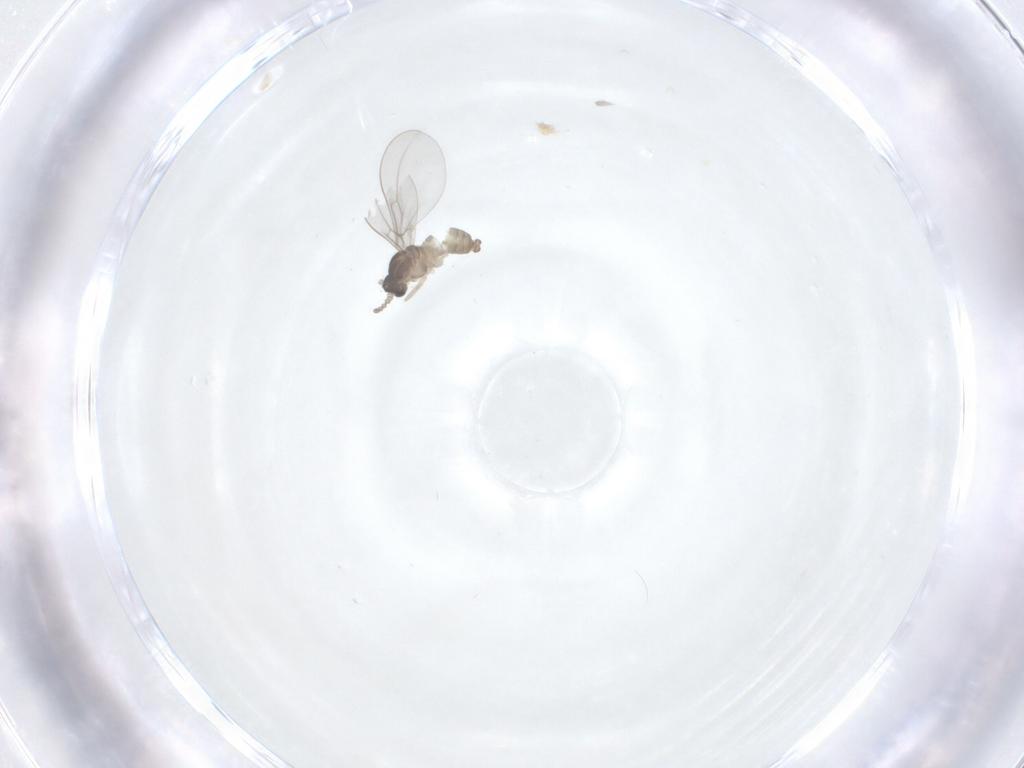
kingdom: Animalia
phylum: Arthropoda
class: Insecta
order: Diptera
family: Cecidomyiidae
